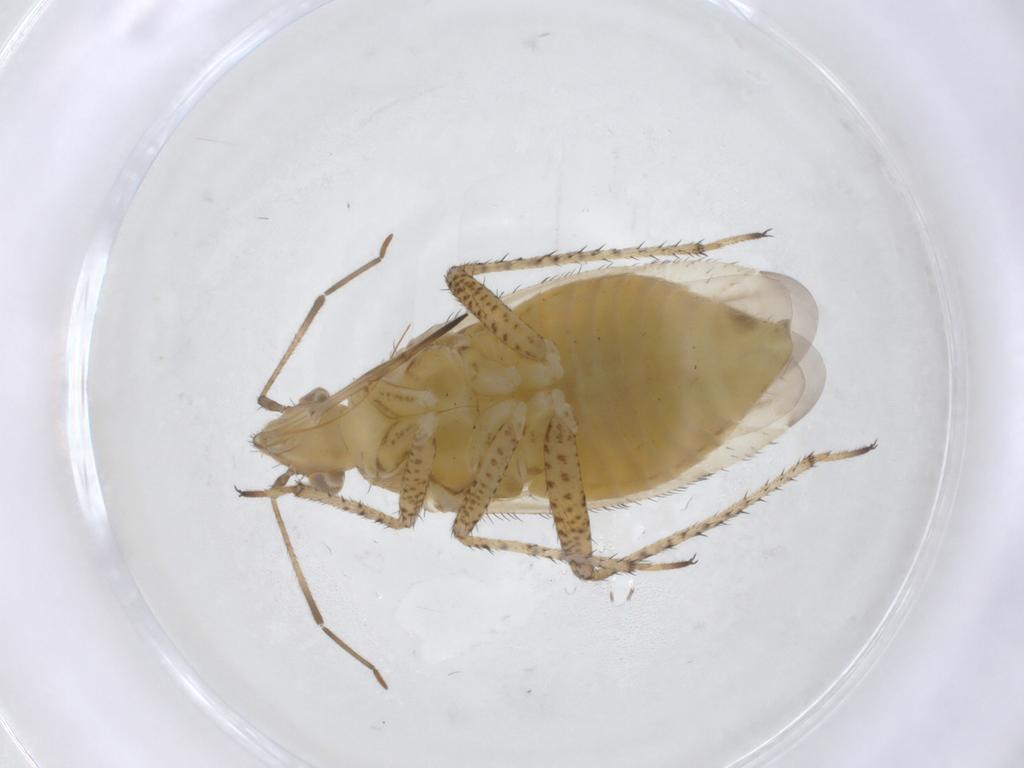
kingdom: Animalia
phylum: Arthropoda
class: Insecta
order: Hemiptera
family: Miridae
